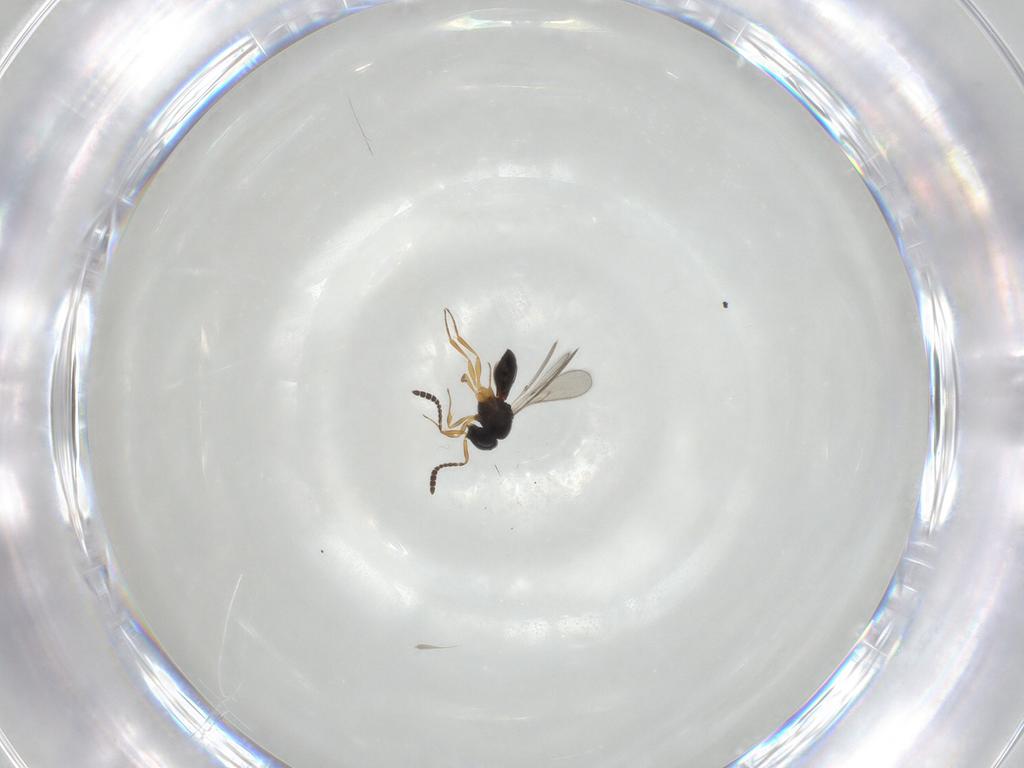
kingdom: Animalia
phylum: Arthropoda
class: Insecta
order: Hymenoptera
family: Scelionidae
